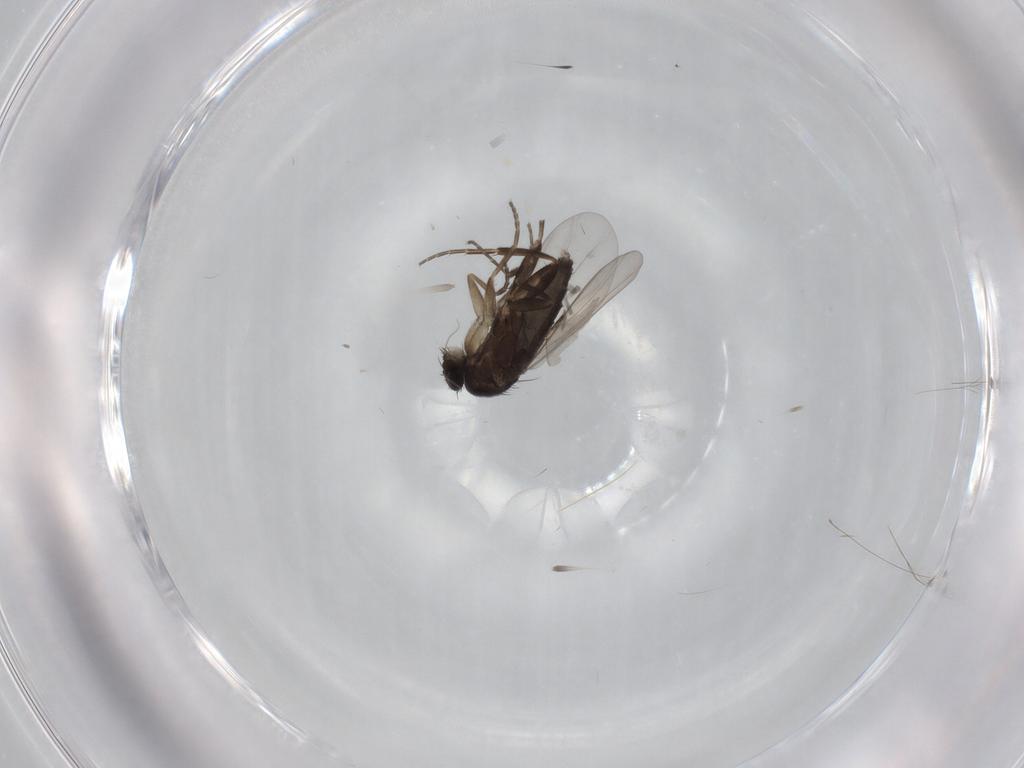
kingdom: Animalia
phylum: Arthropoda
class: Insecta
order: Diptera
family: Phoridae
